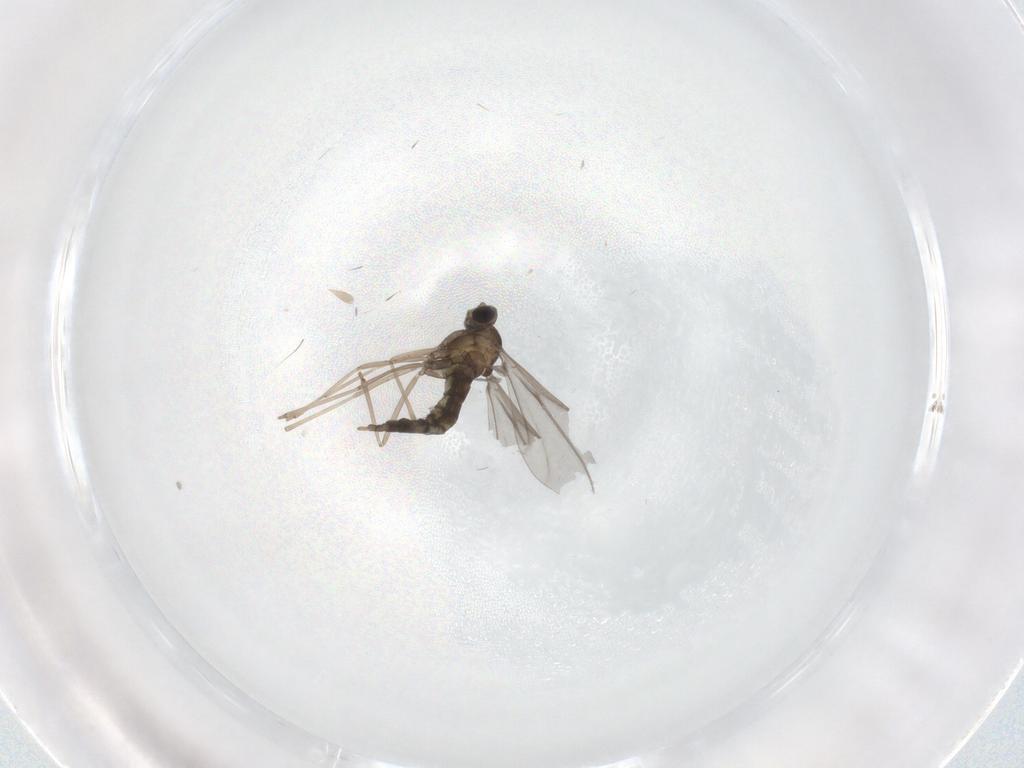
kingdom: Animalia
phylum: Arthropoda
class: Insecta
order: Diptera
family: Cecidomyiidae
